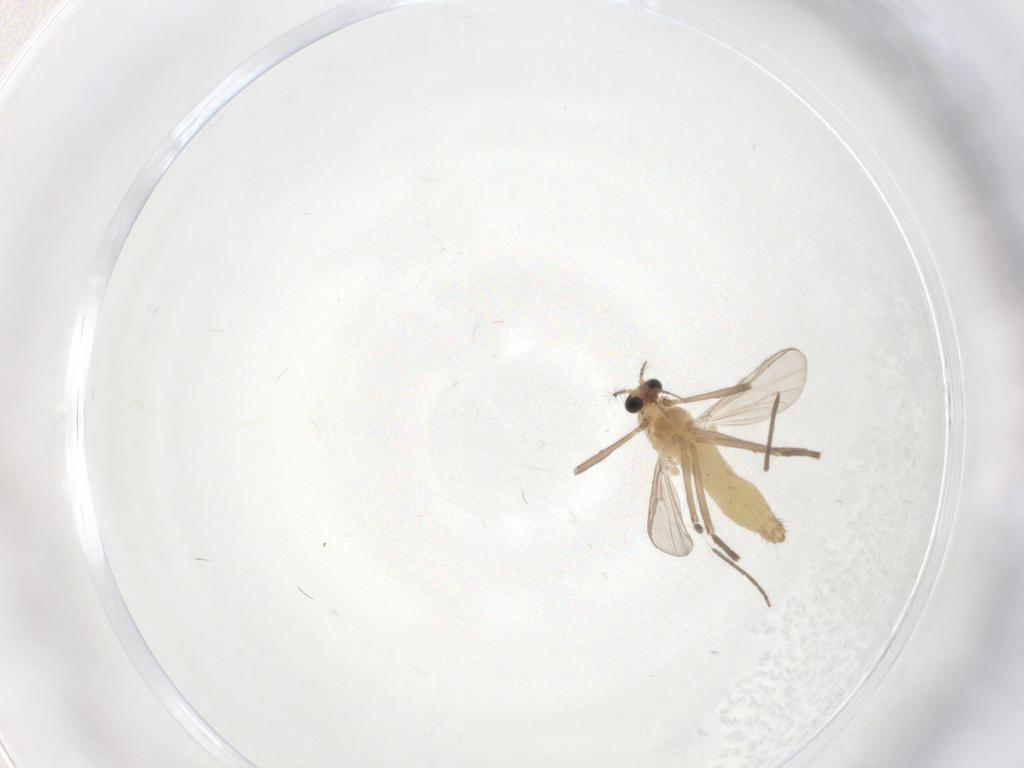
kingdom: Animalia
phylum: Arthropoda
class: Insecta
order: Diptera
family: Chironomidae
